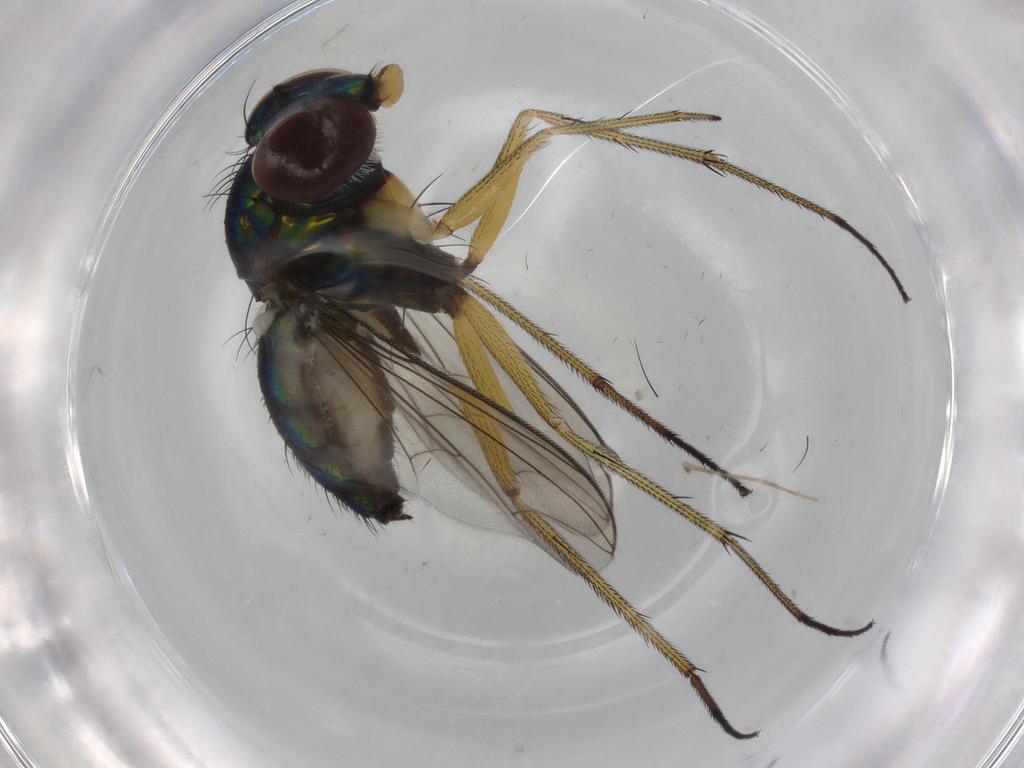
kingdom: Animalia
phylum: Arthropoda
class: Insecta
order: Diptera
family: Dolichopodidae
